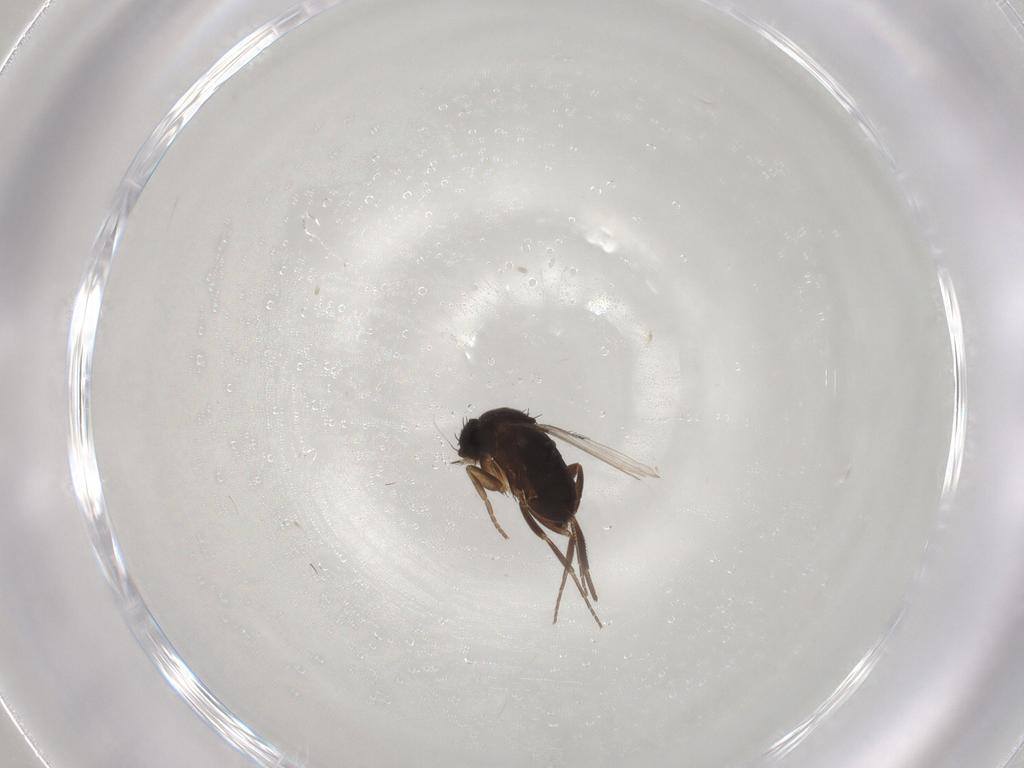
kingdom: Animalia
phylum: Arthropoda
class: Insecta
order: Diptera
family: Phoridae
